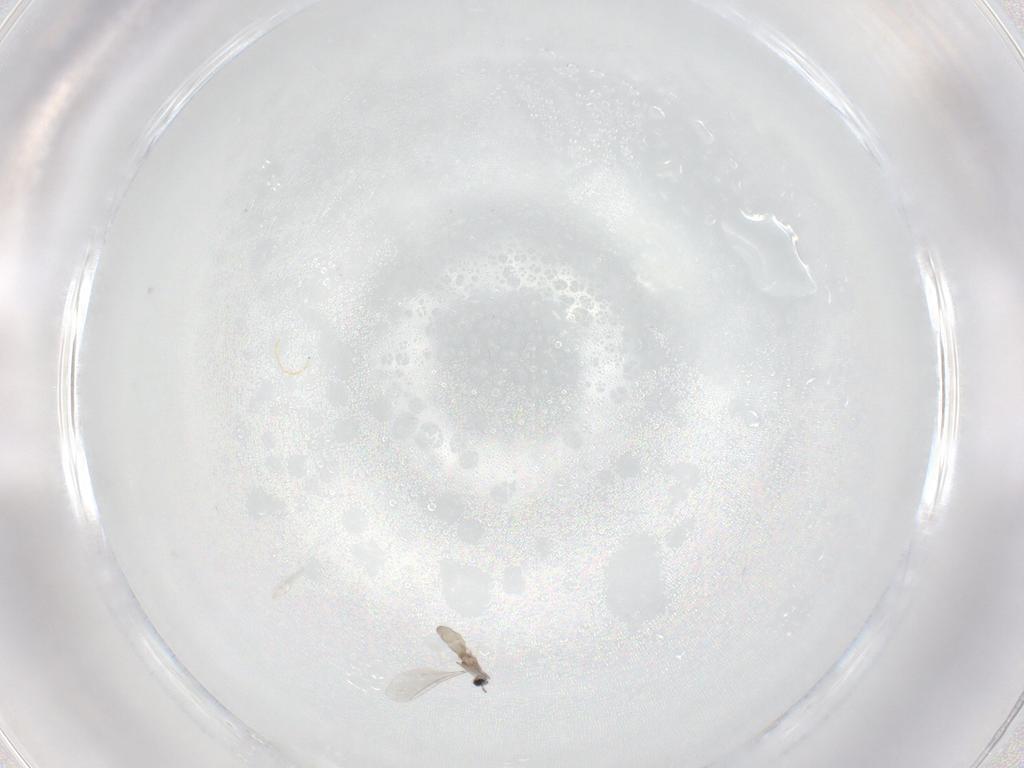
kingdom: Animalia
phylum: Arthropoda
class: Insecta
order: Diptera
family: Cecidomyiidae
